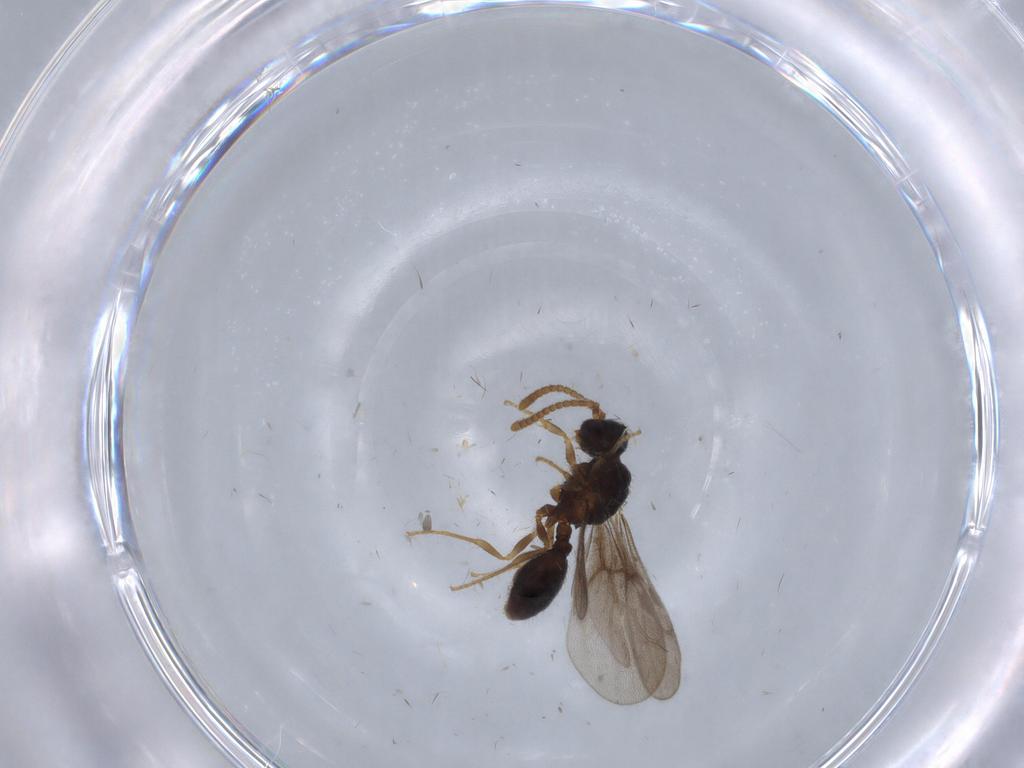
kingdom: Animalia
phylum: Arthropoda
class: Insecta
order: Hymenoptera
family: Formicidae
